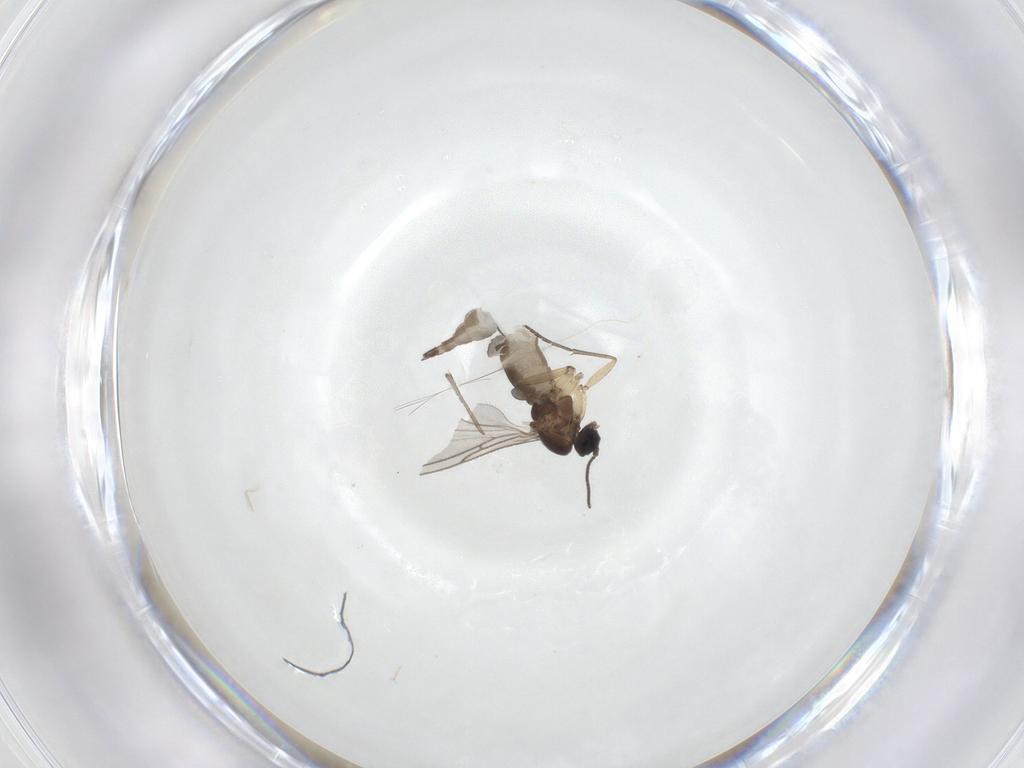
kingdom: Animalia
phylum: Arthropoda
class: Insecta
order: Diptera
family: Sciaridae
